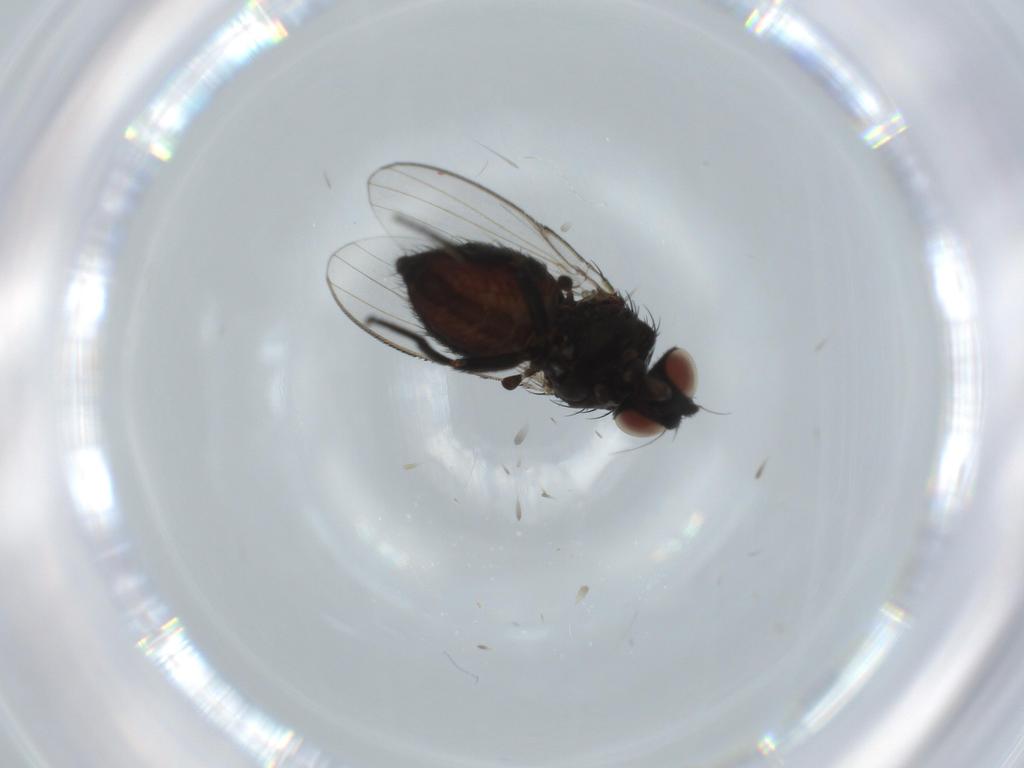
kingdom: Animalia
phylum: Arthropoda
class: Insecta
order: Diptera
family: Milichiidae
